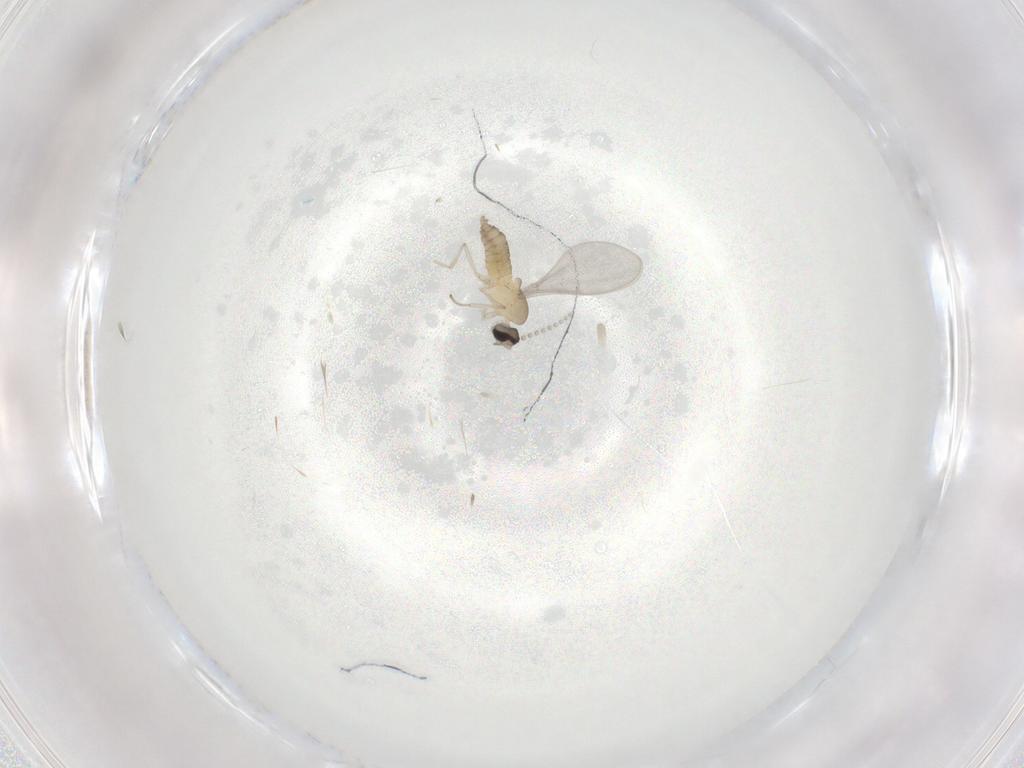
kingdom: Animalia
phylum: Arthropoda
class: Insecta
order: Diptera
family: Cecidomyiidae
